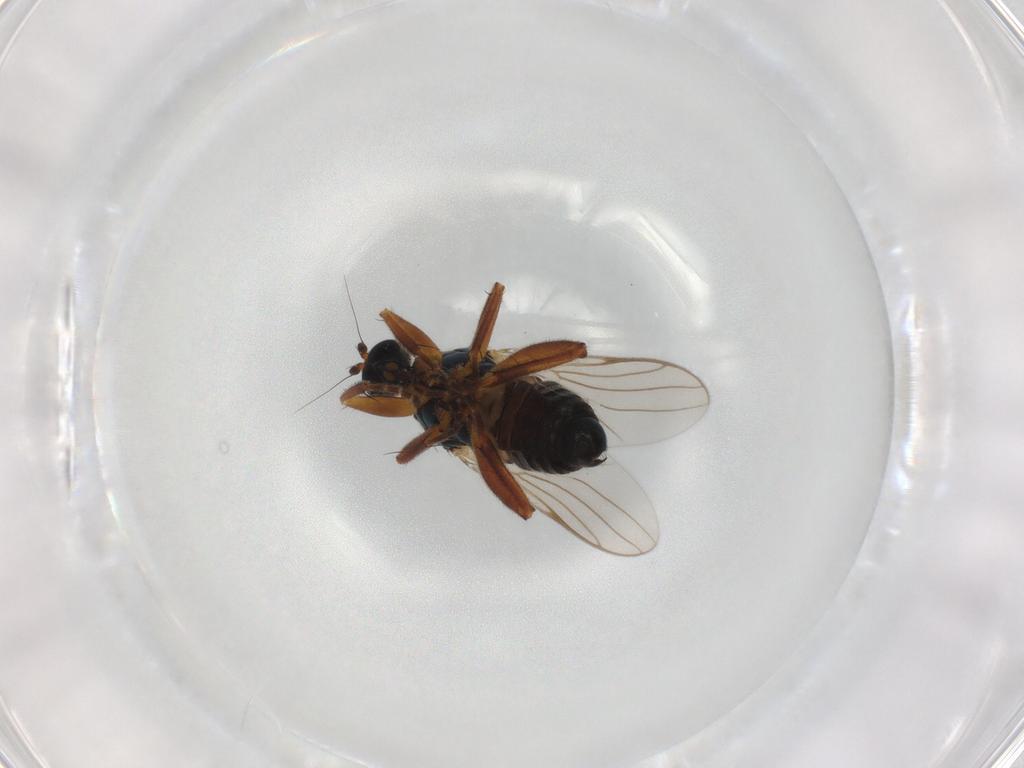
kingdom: Animalia
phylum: Arthropoda
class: Insecta
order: Diptera
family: Hybotidae
